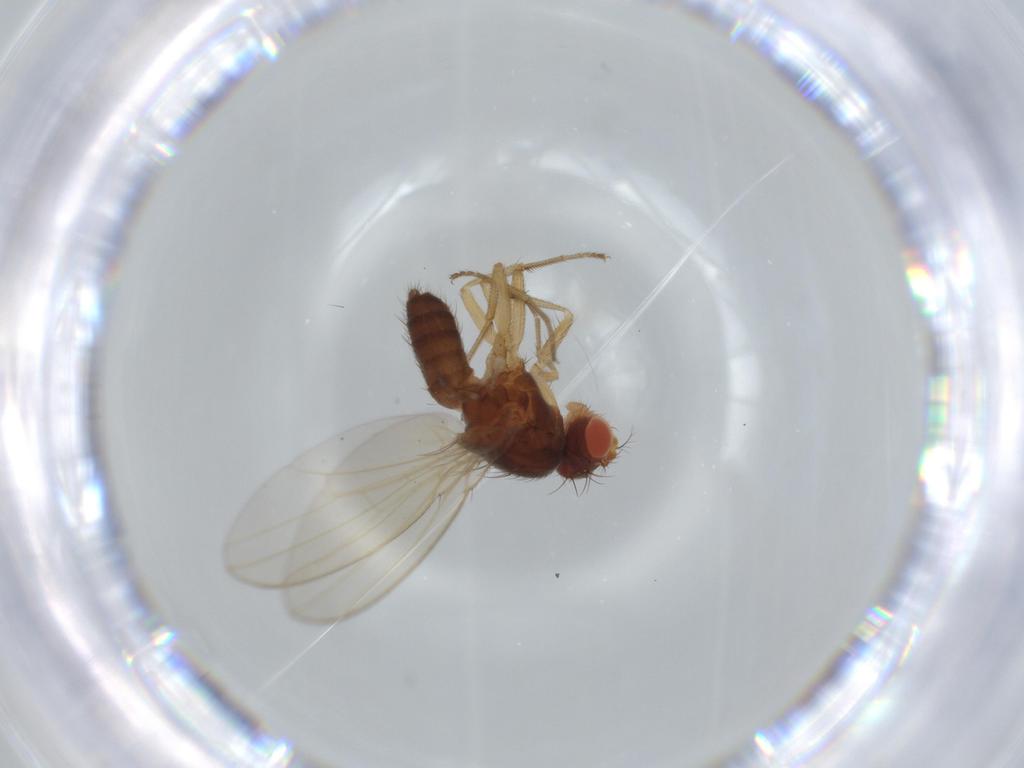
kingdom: Animalia
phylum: Arthropoda
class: Insecta
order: Diptera
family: Drosophilidae
